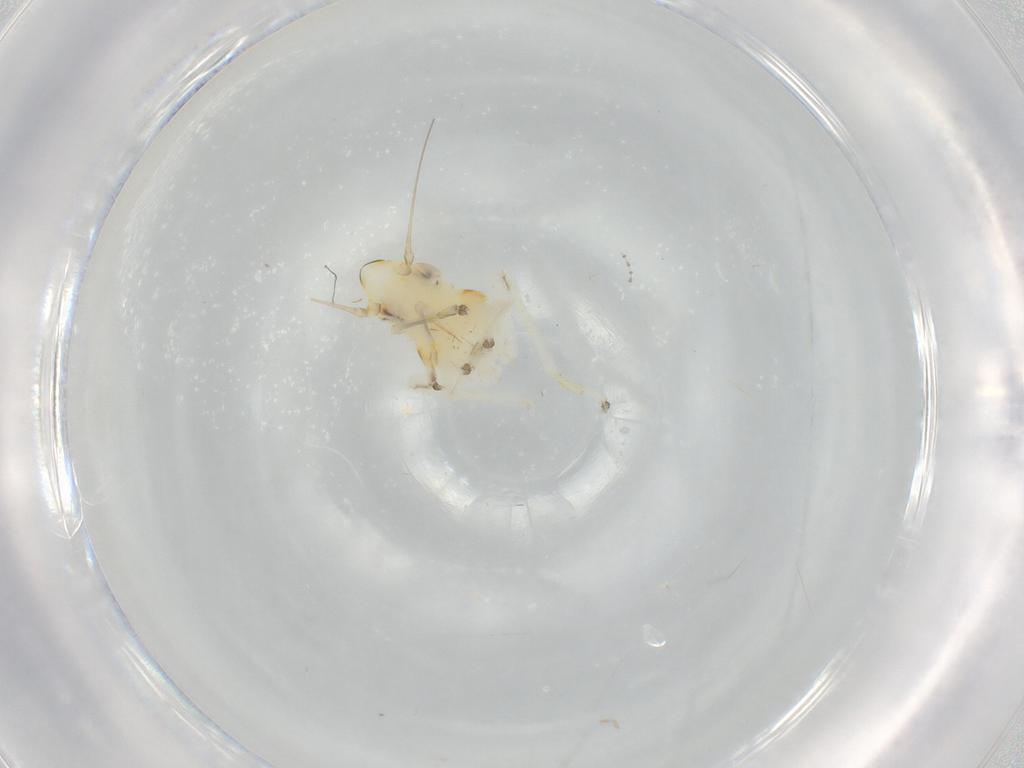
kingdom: Animalia
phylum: Arthropoda
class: Insecta
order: Hemiptera
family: Cicadellidae
